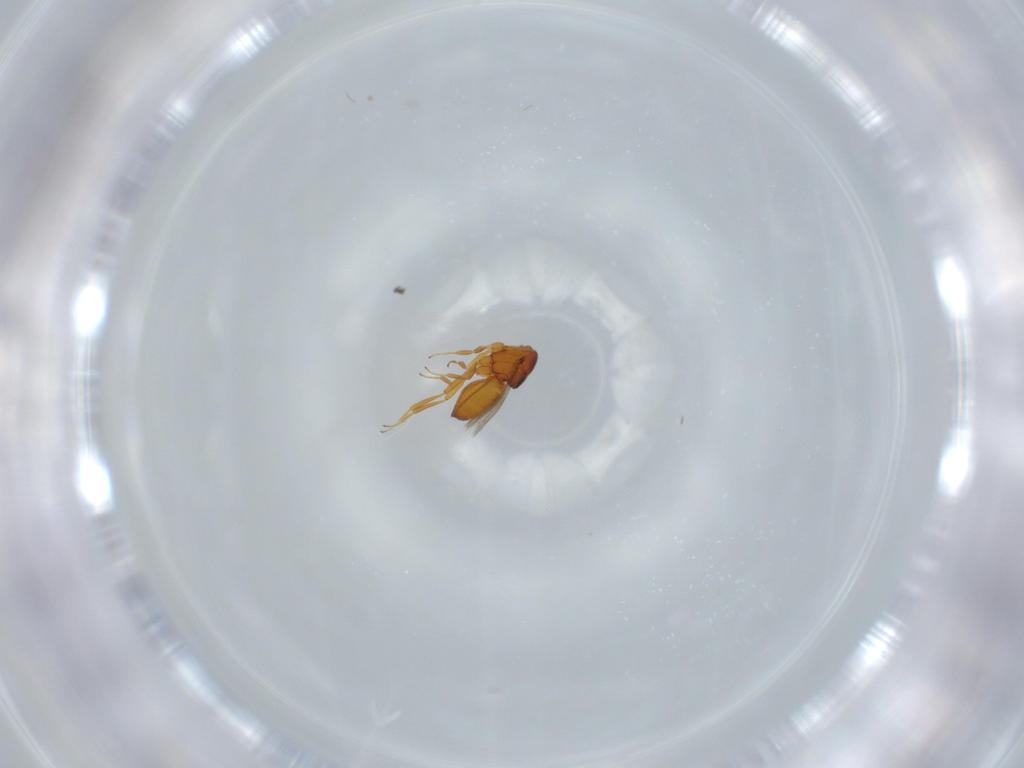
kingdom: Animalia
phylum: Arthropoda
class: Insecta
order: Hymenoptera
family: Scelionidae
